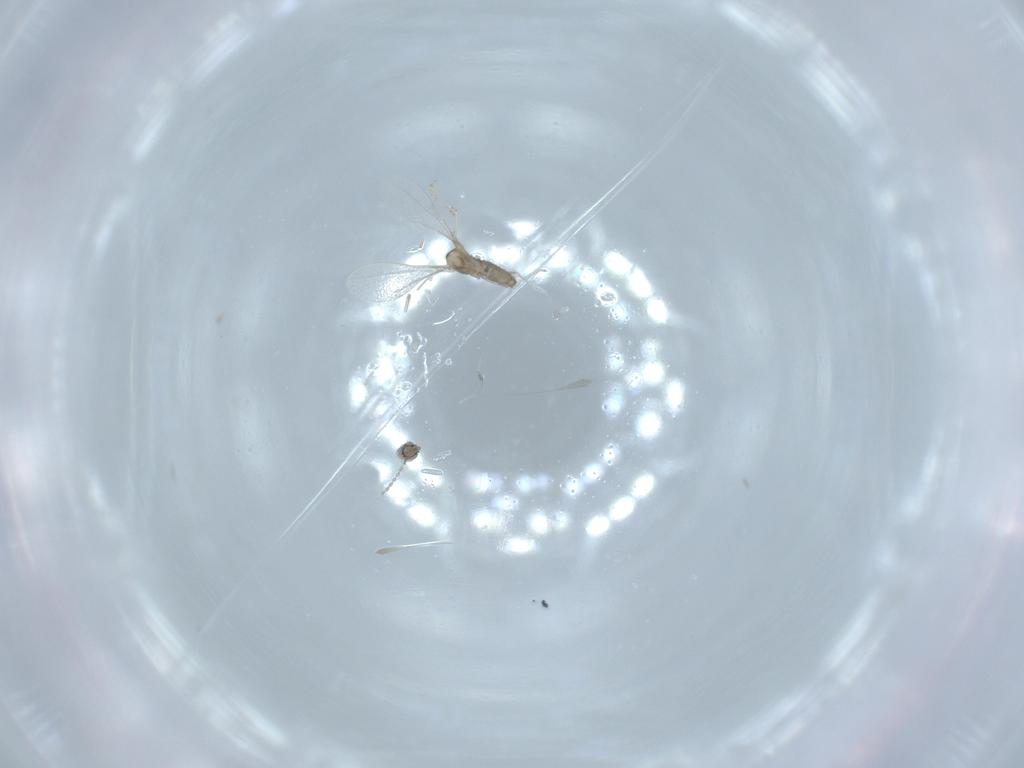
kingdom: Animalia
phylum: Arthropoda
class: Insecta
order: Diptera
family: Cecidomyiidae
